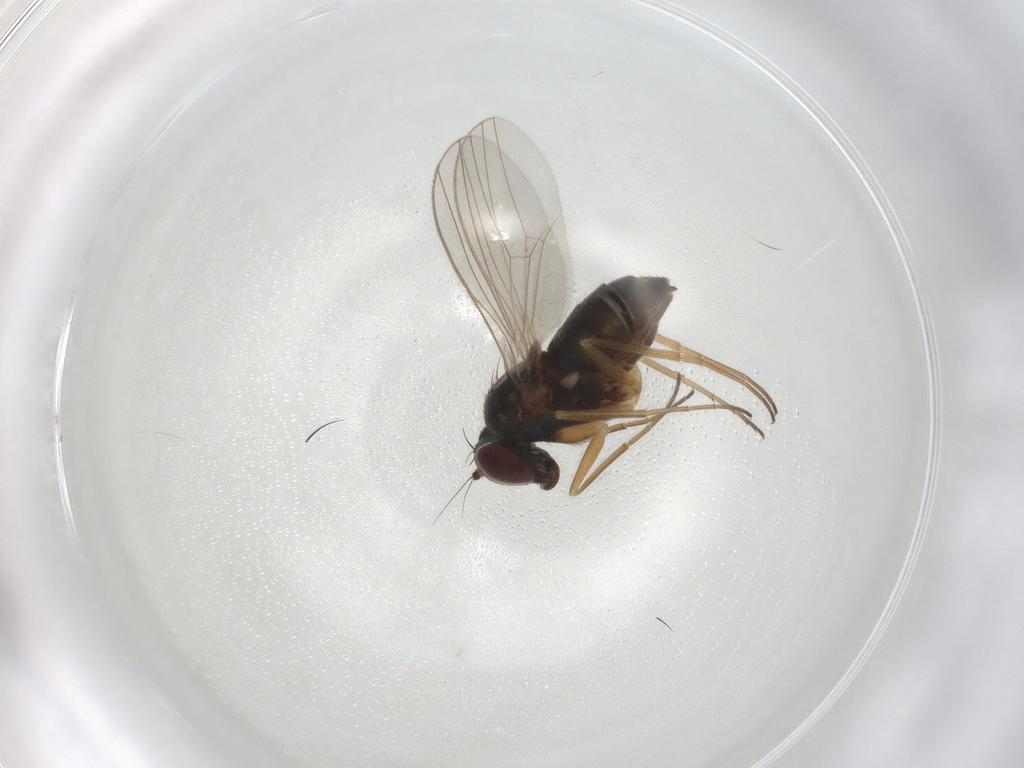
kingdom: Animalia
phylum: Arthropoda
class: Insecta
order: Diptera
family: Dolichopodidae
